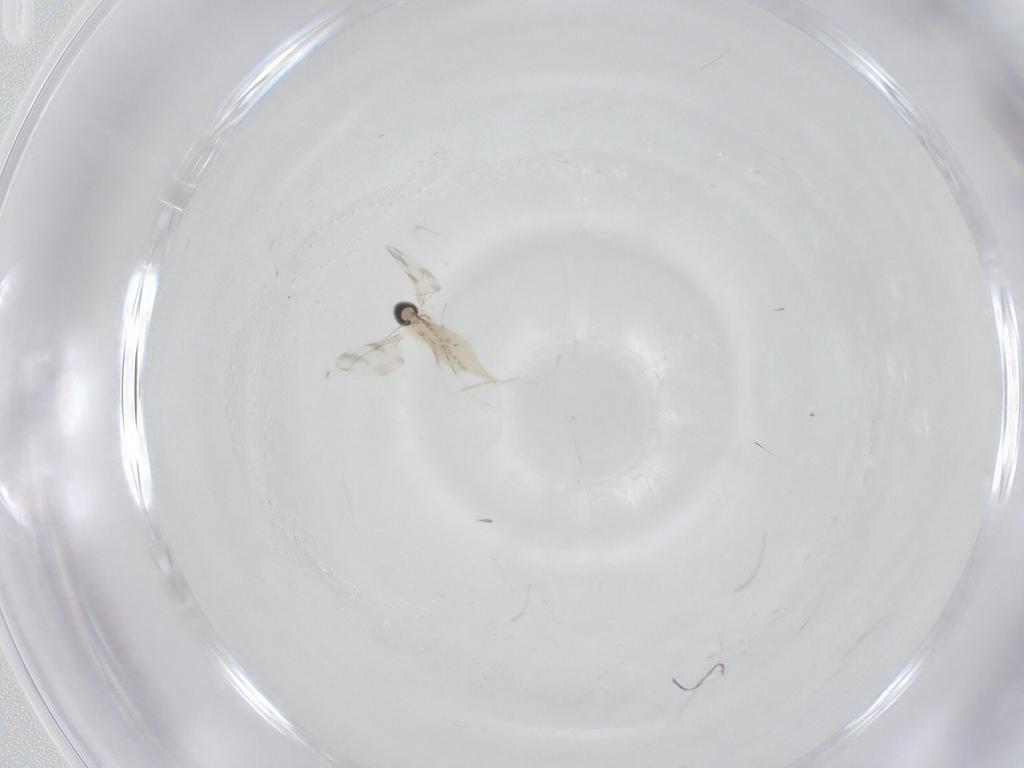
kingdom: Animalia
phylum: Arthropoda
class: Insecta
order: Diptera
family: Cecidomyiidae
